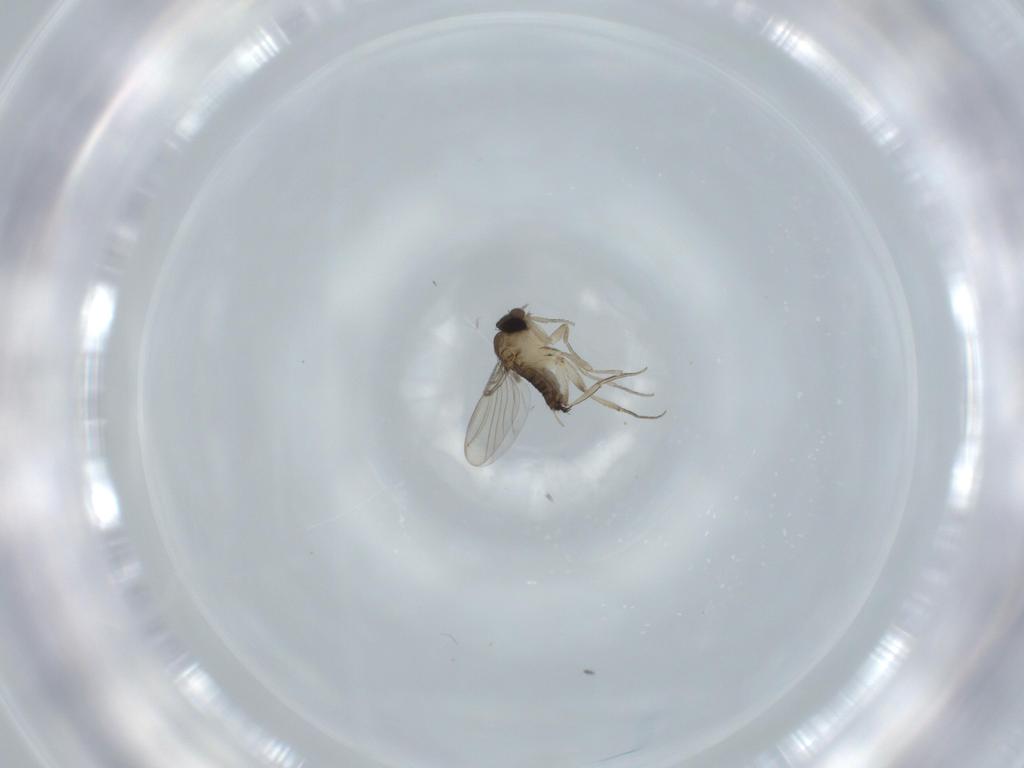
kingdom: Animalia
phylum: Arthropoda
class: Insecta
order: Diptera
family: Phoridae
